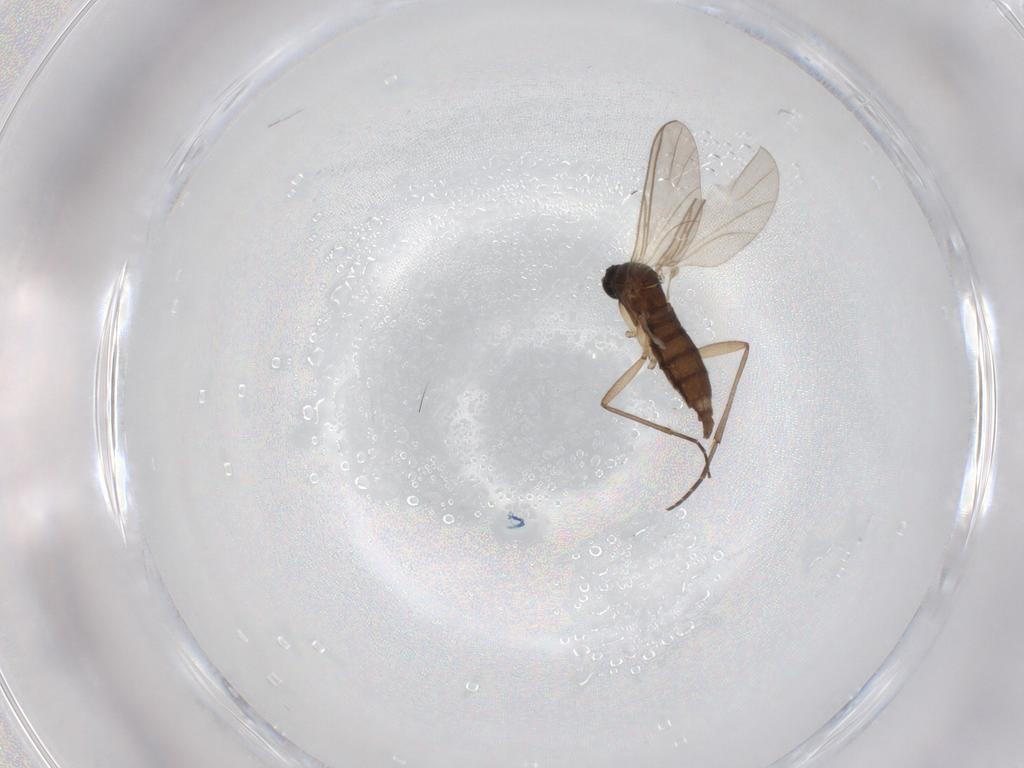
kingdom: Animalia
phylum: Arthropoda
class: Insecta
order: Diptera
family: Sciaridae
